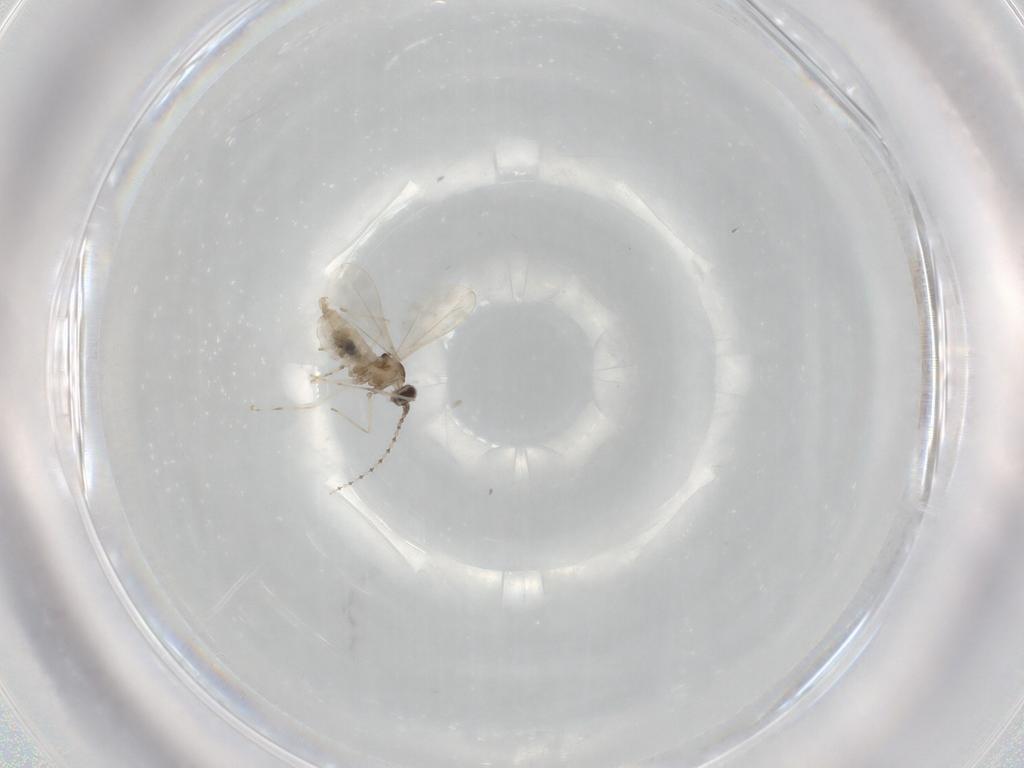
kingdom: Animalia
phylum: Arthropoda
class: Insecta
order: Diptera
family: Cecidomyiidae
